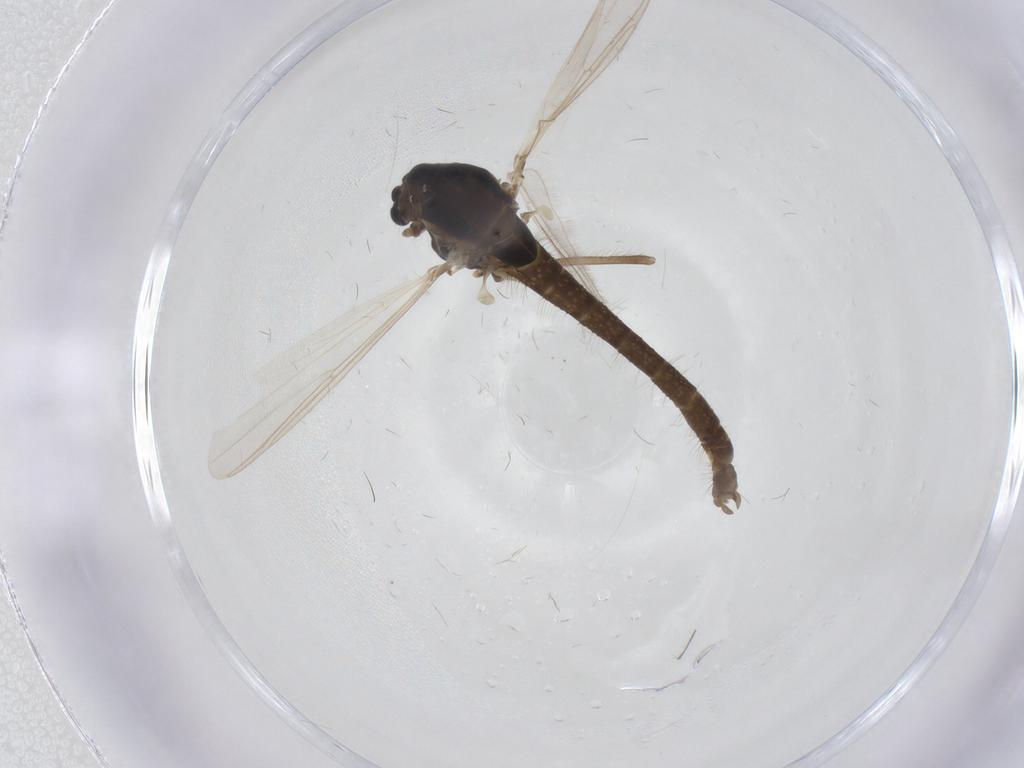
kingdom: Animalia
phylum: Arthropoda
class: Insecta
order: Diptera
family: Chironomidae
